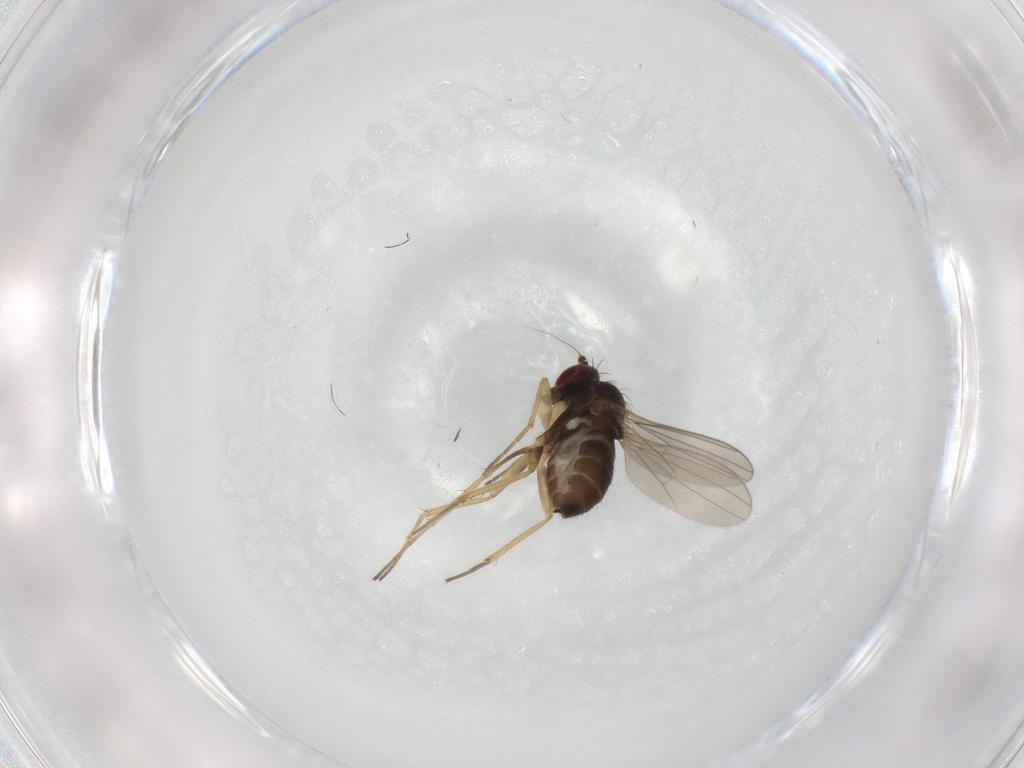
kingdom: Animalia
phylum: Arthropoda
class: Insecta
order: Diptera
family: Dolichopodidae
